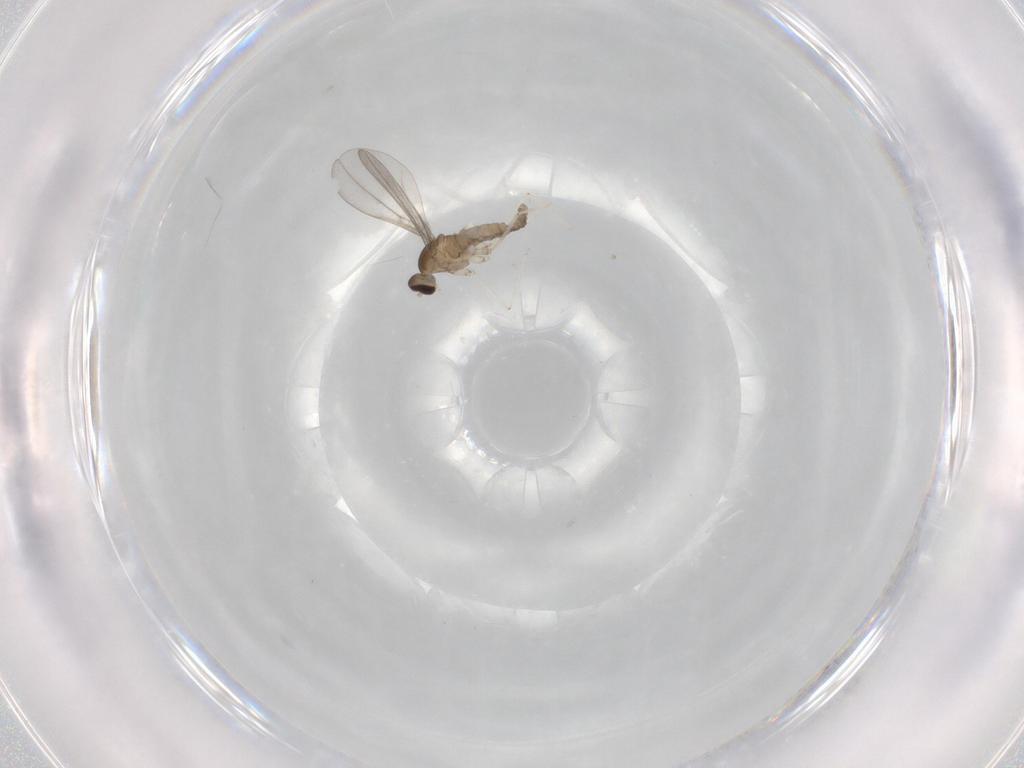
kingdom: Animalia
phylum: Arthropoda
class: Insecta
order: Diptera
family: Cecidomyiidae
